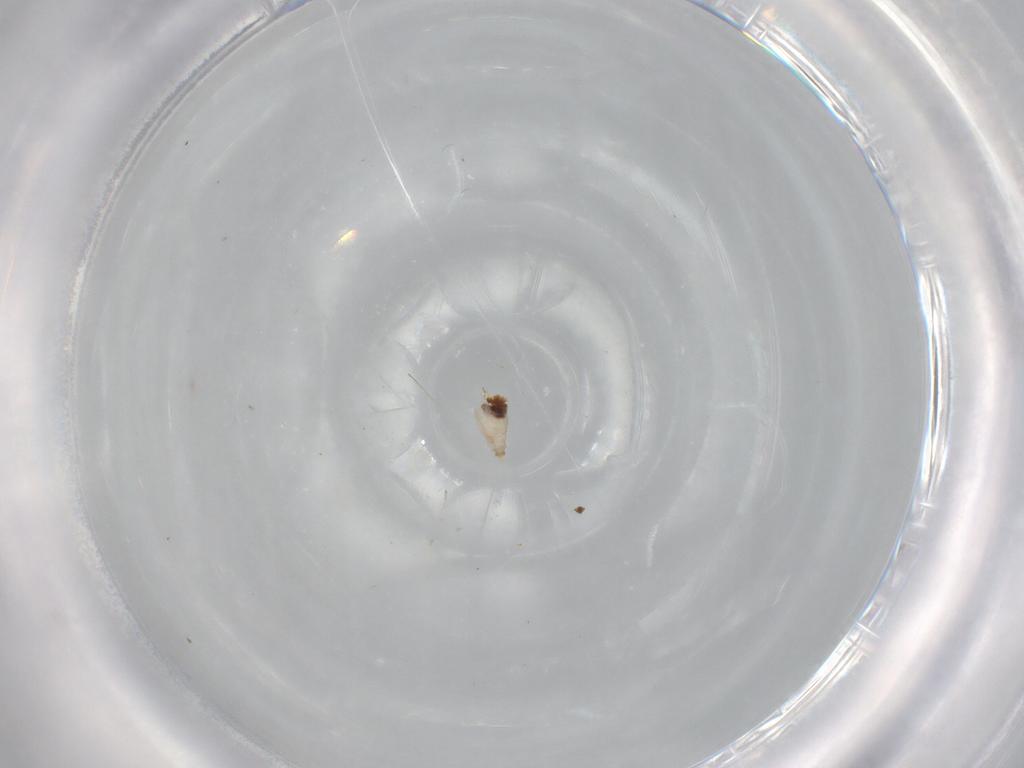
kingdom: Animalia
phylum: Arthropoda
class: Insecta
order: Diptera
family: Cecidomyiidae
